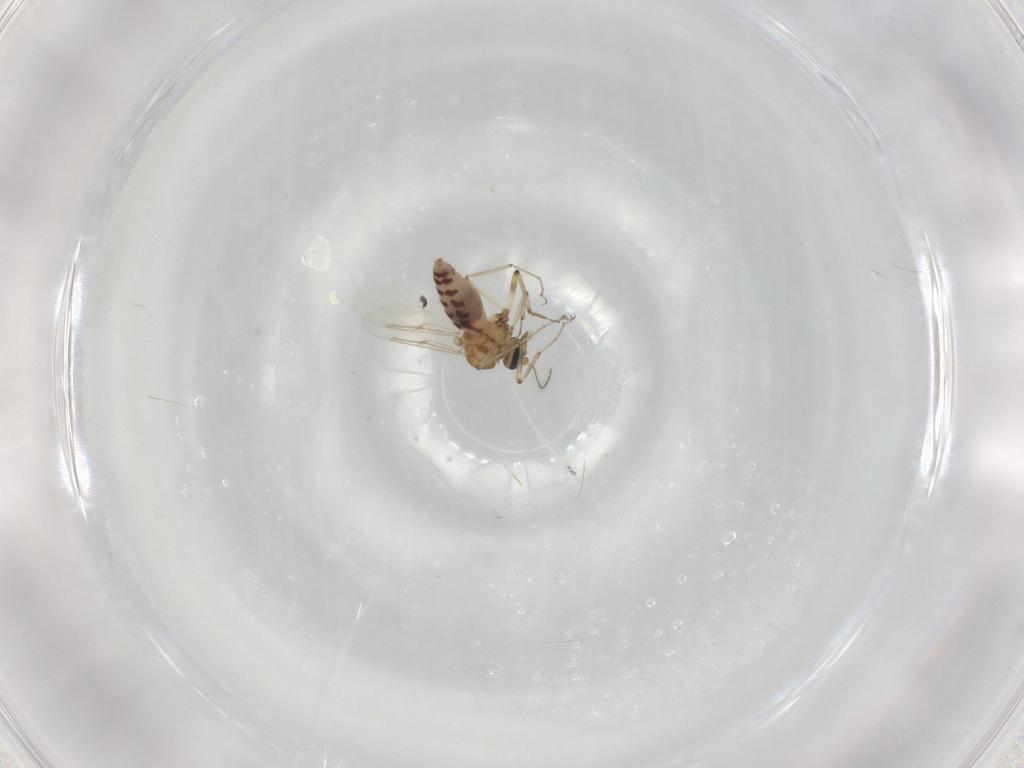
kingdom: Animalia
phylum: Arthropoda
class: Insecta
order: Diptera
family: Ceratopogonidae
